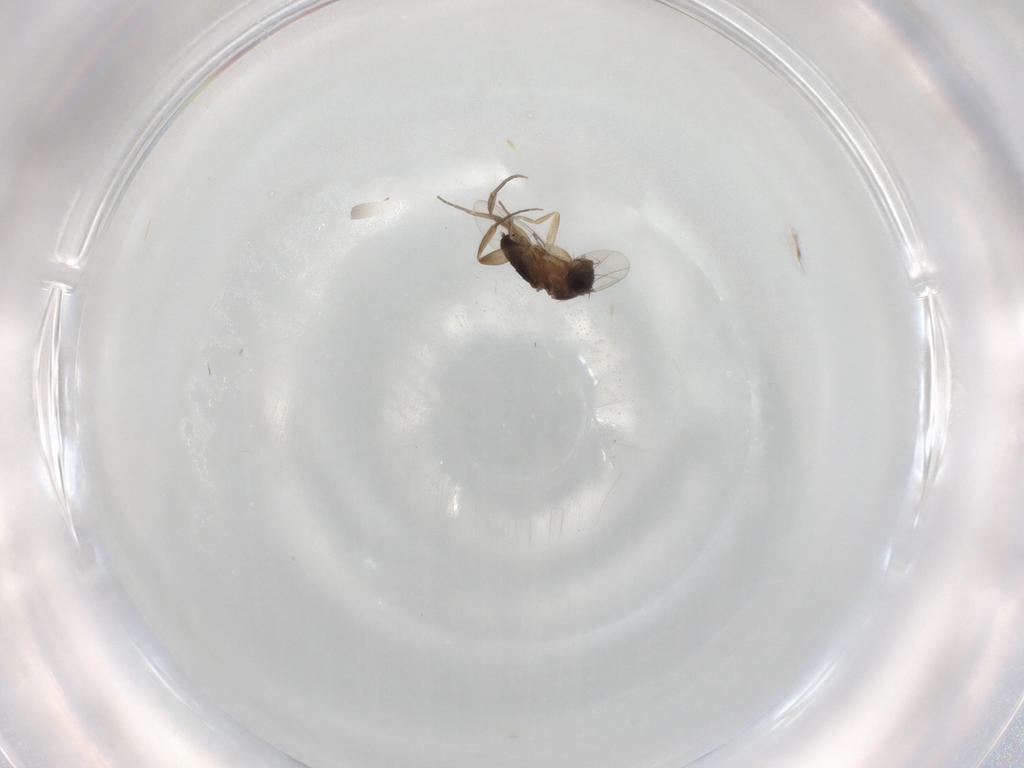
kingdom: Animalia
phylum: Arthropoda
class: Insecta
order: Diptera
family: Phoridae
